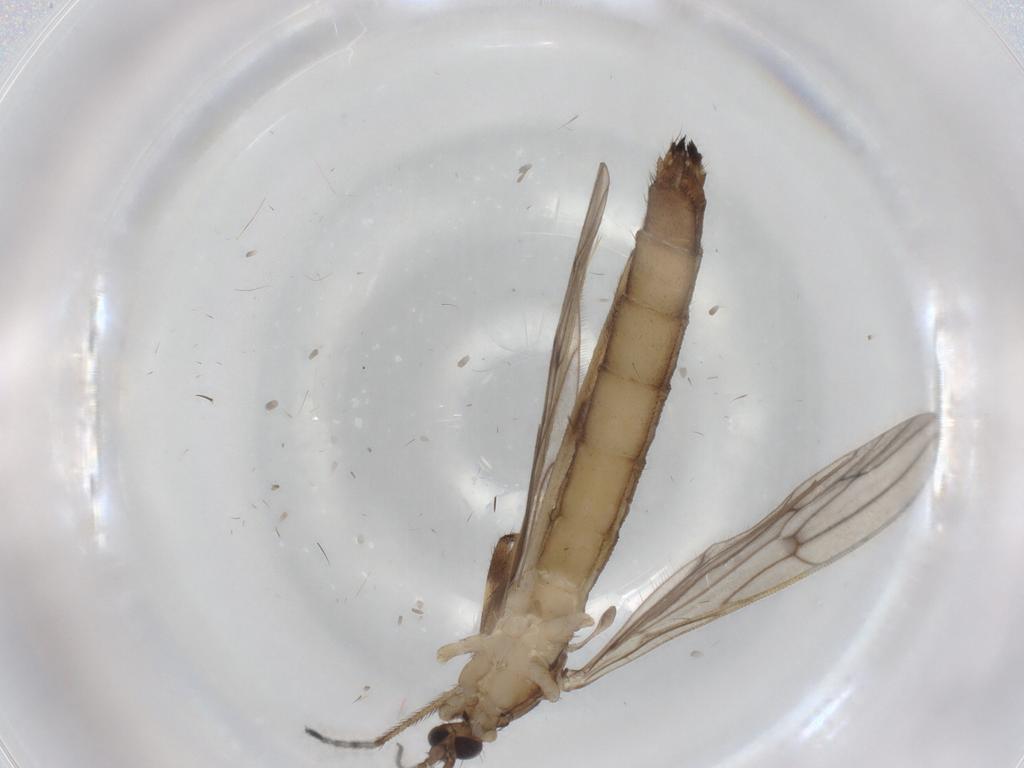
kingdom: Animalia
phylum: Arthropoda
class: Insecta
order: Diptera
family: Limoniidae
